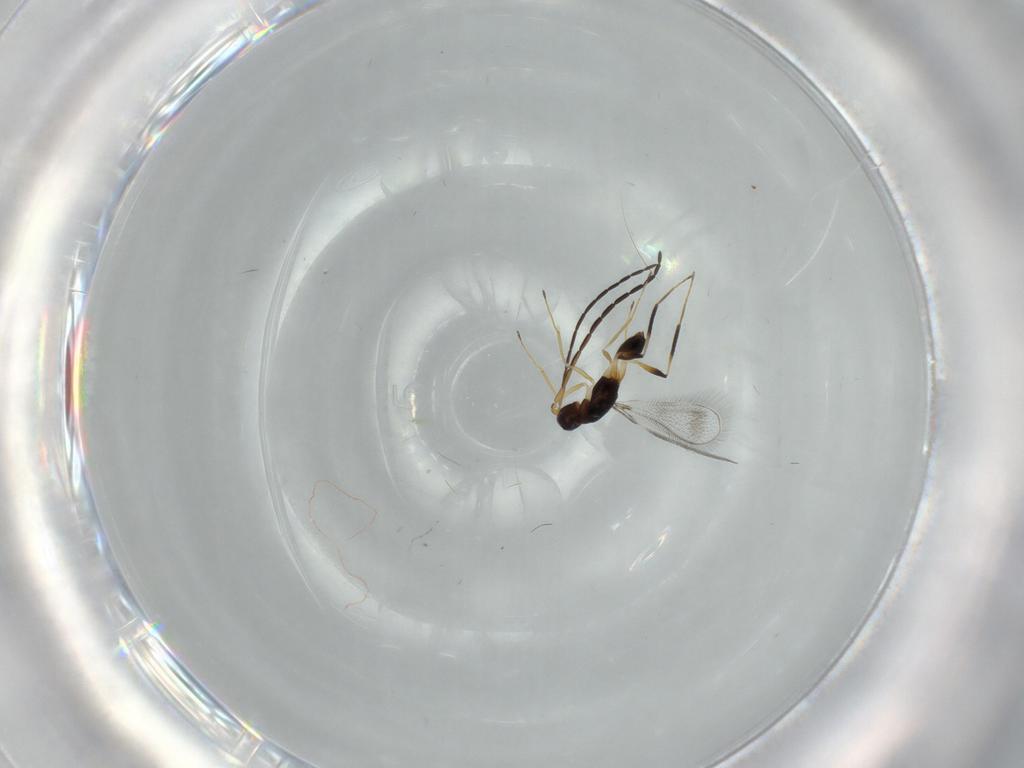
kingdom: Animalia
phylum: Arthropoda
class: Insecta
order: Hymenoptera
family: Mymaridae
